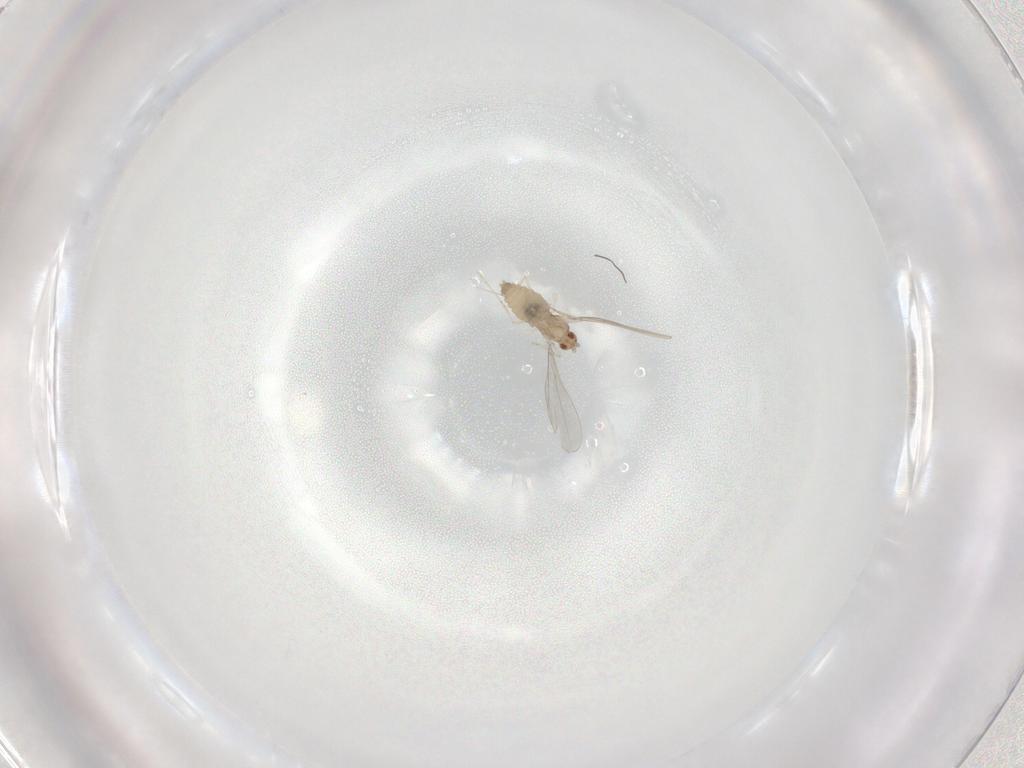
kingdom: Animalia
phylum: Arthropoda
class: Insecta
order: Diptera
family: Cecidomyiidae
